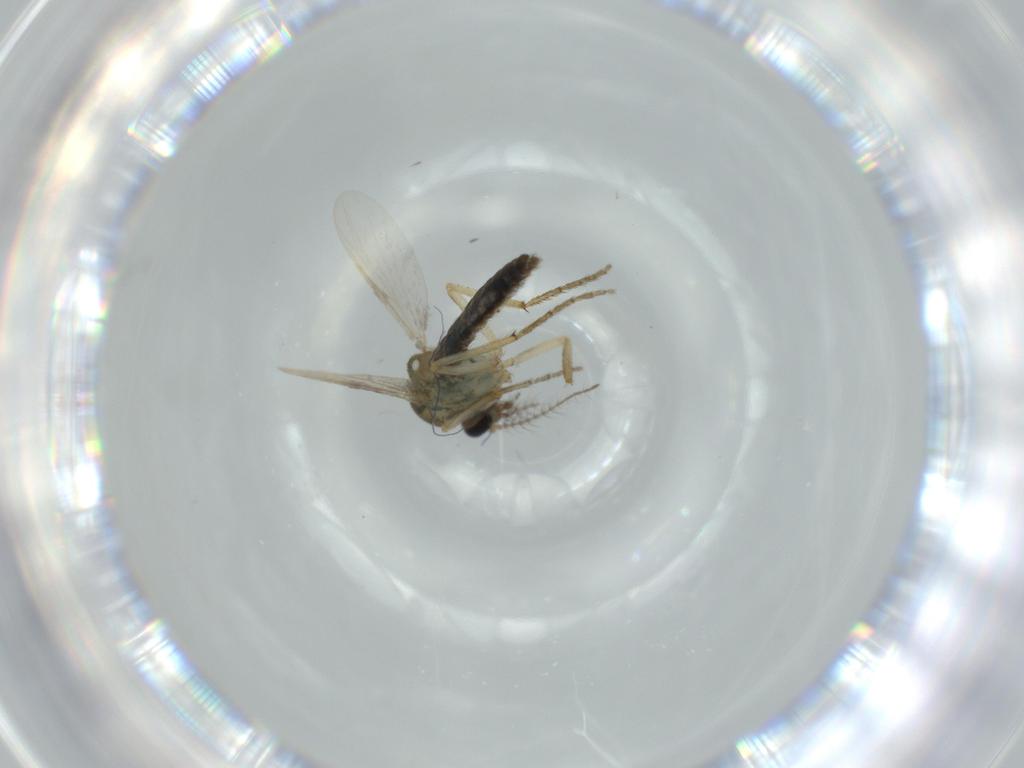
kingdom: Animalia
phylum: Arthropoda
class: Insecta
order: Diptera
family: Ceratopogonidae
